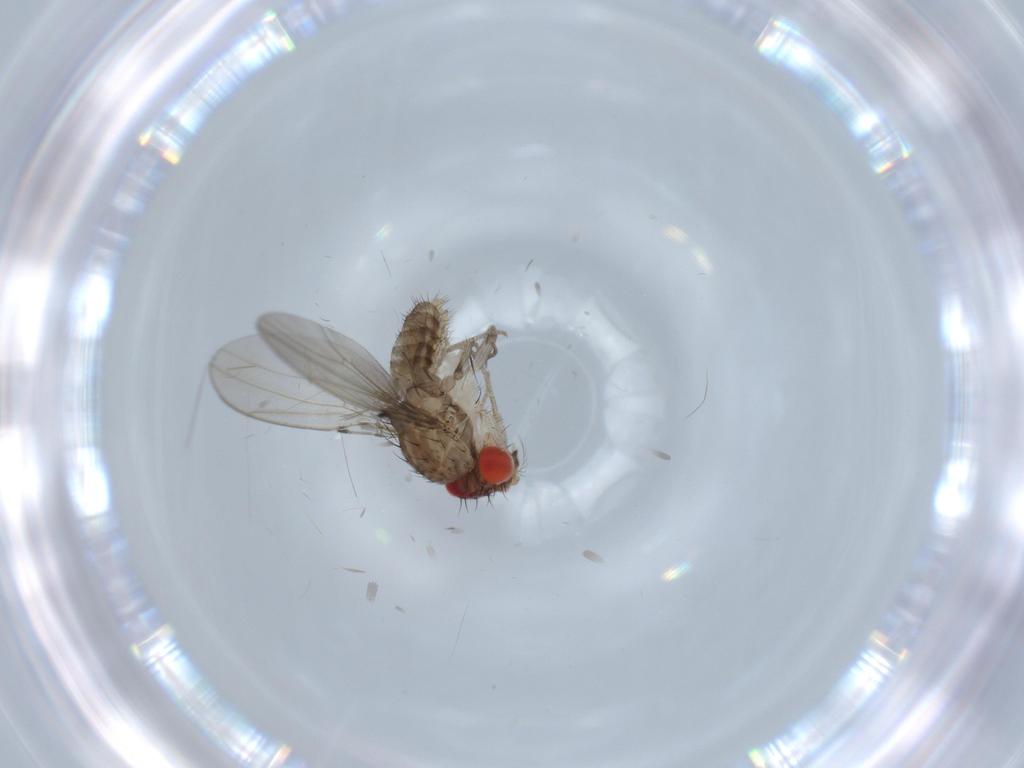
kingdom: Animalia
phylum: Arthropoda
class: Insecta
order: Diptera
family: Drosophilidae
